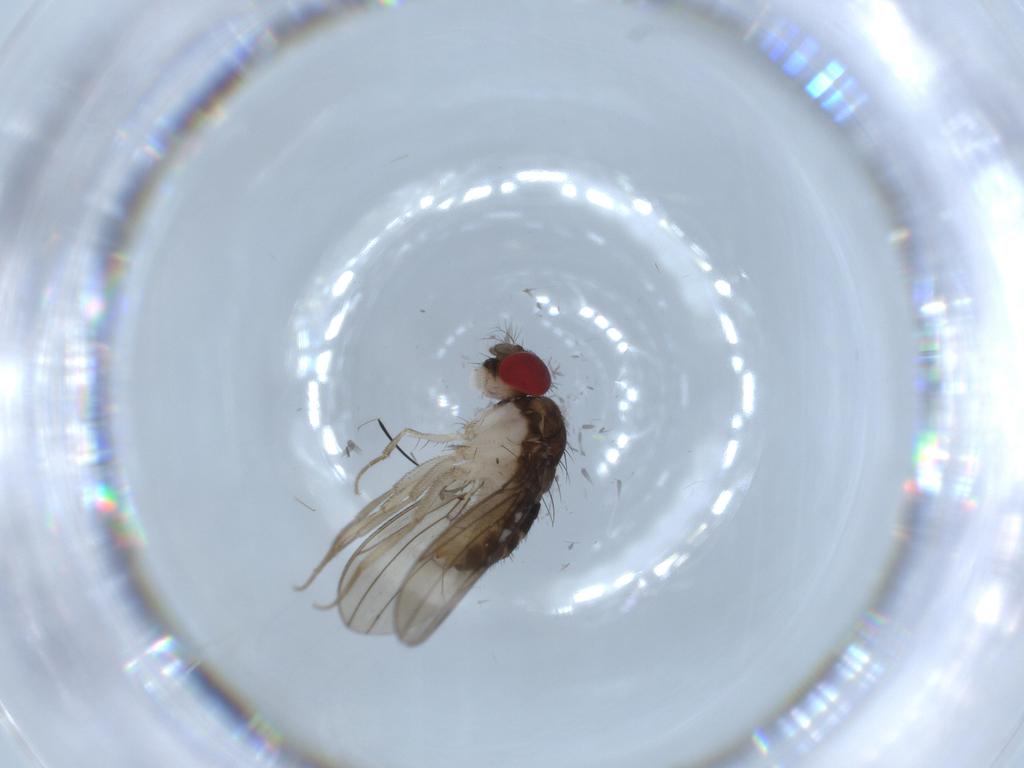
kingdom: Animalia
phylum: Arthropoda
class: Insecta
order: Diptera
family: Drosophilidae
